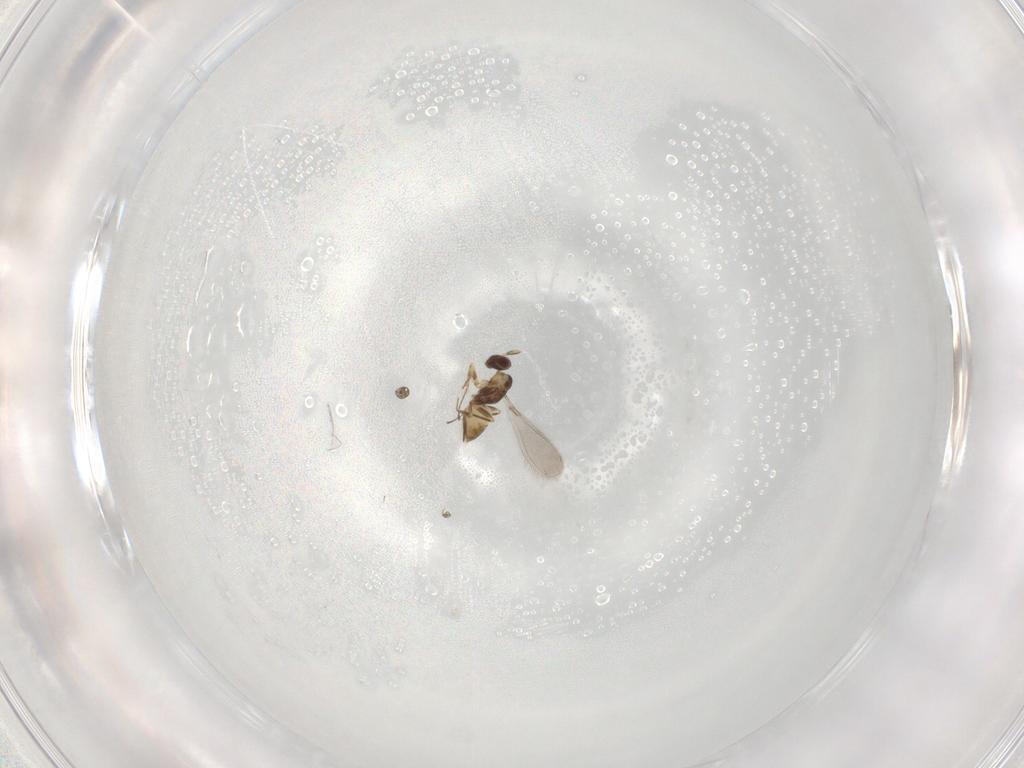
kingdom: Animalia
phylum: Arthropoda
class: Insecta
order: Hymenoptera
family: Mymaridae
